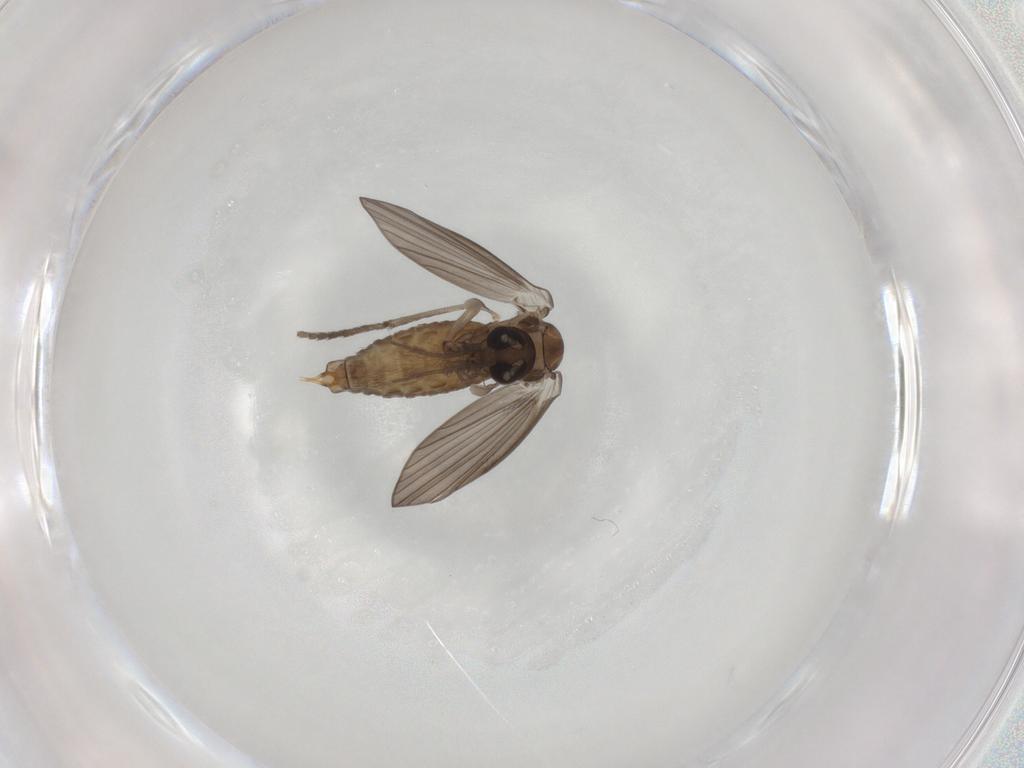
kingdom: Animalia
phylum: Arthropoda
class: Insecta
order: Diptera
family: Psychodidae
